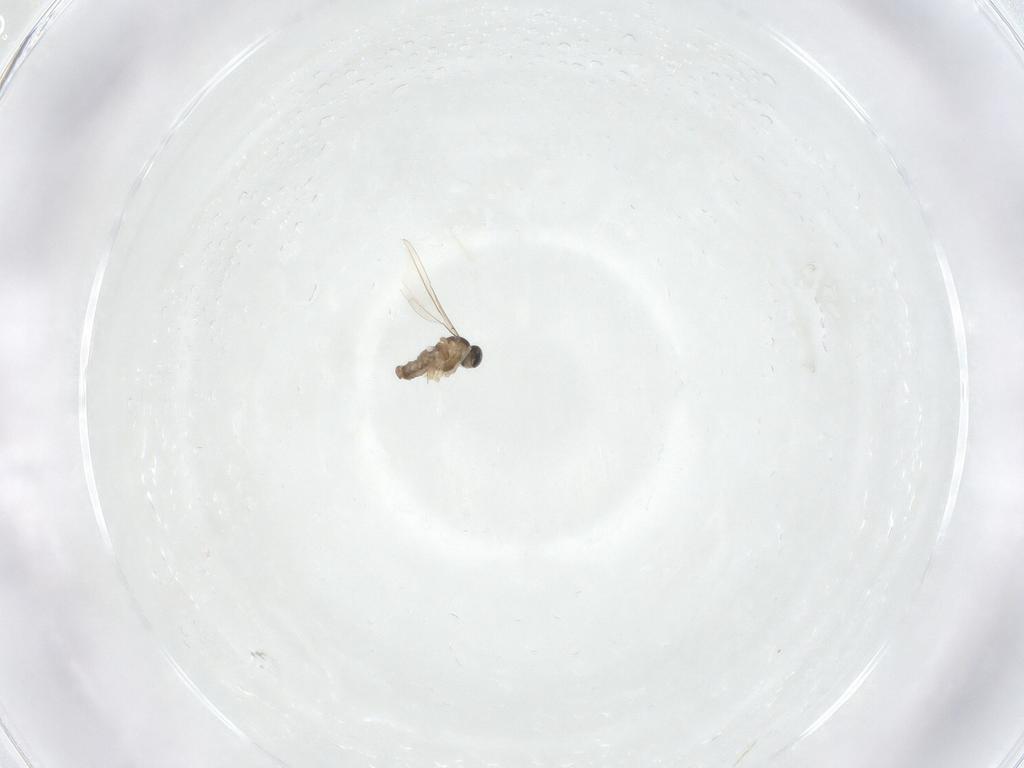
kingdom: Animalia
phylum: Arthropoda
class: Insecta
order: Diptera
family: Cecidomyiidae
